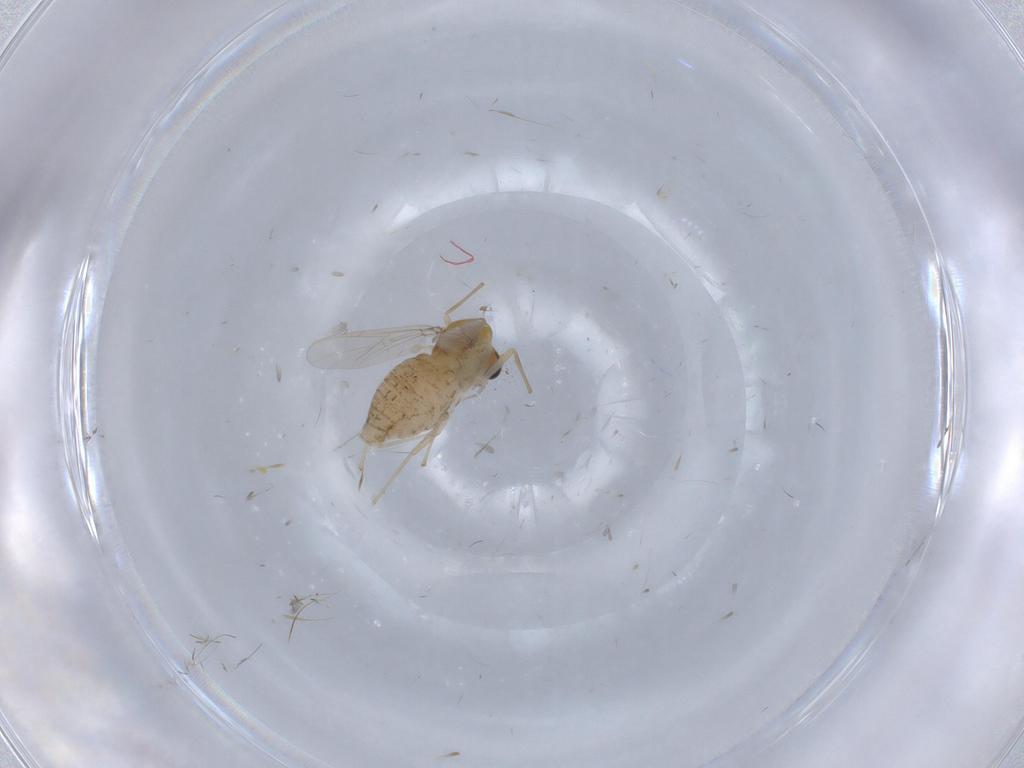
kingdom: Animalia
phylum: Arthropoda
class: Insecta
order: Diptera
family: Chironomidae
